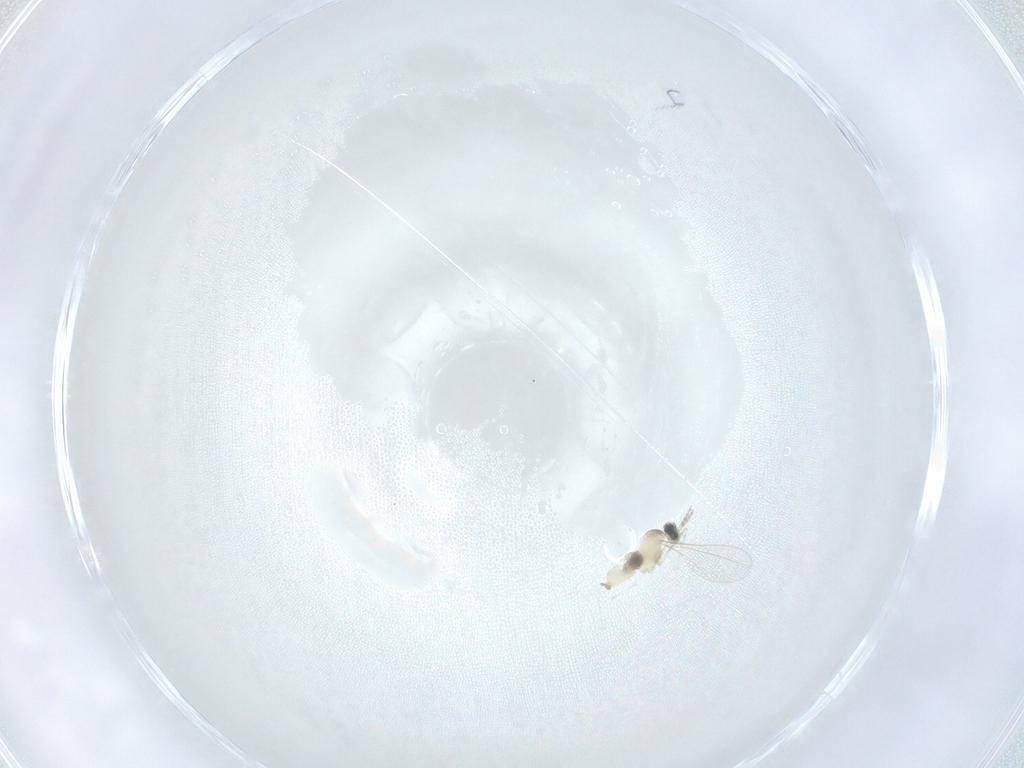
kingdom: Animalia
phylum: Arthropoda
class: Insecta
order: Diptera
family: Cecidomyiidae
